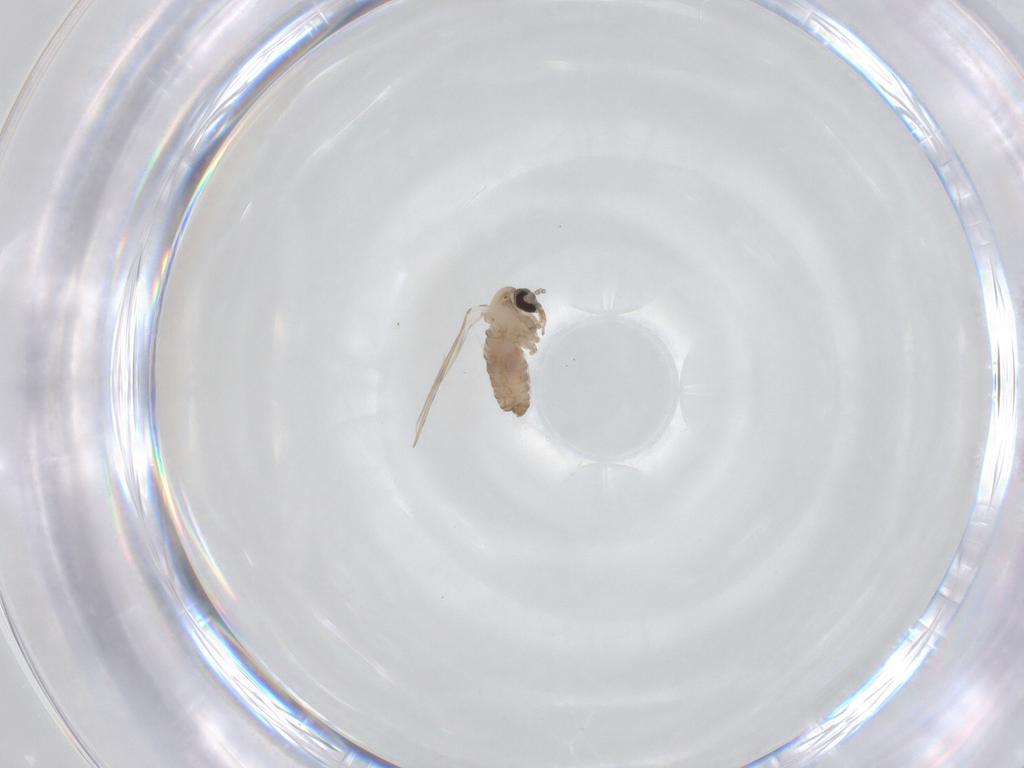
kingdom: Animalia
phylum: Arthropoda
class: Insecta
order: Diptera
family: Psychodidae
